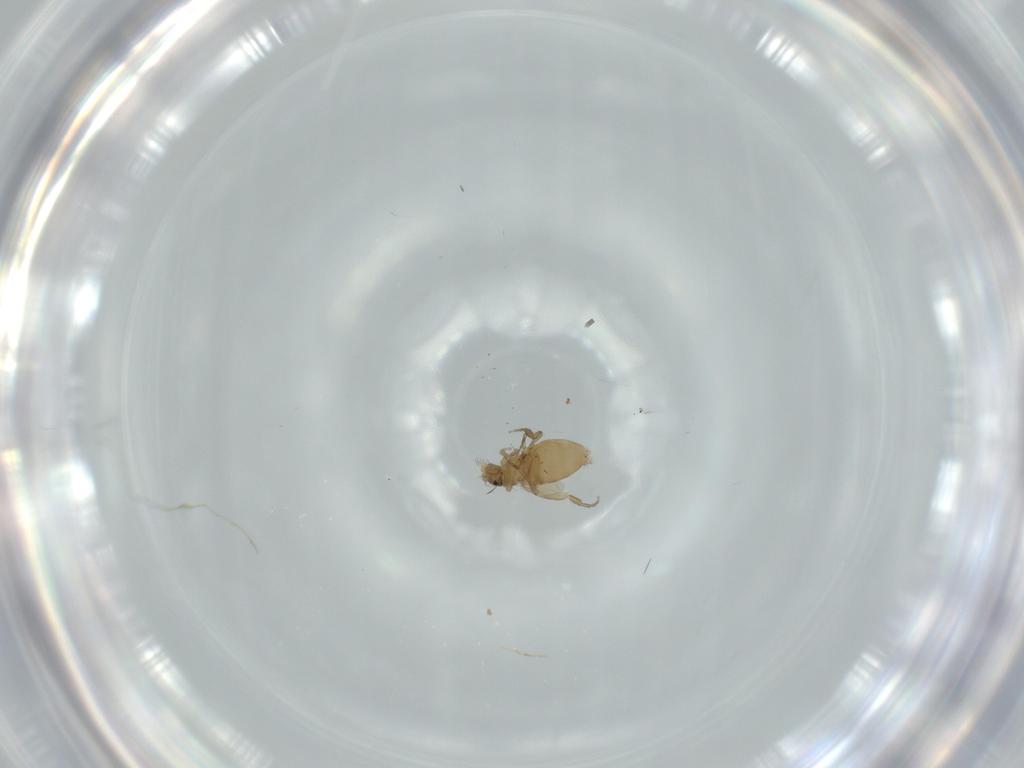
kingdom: Animalia
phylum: Arthropoda
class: Insecta
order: Diptera
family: Phoridae
